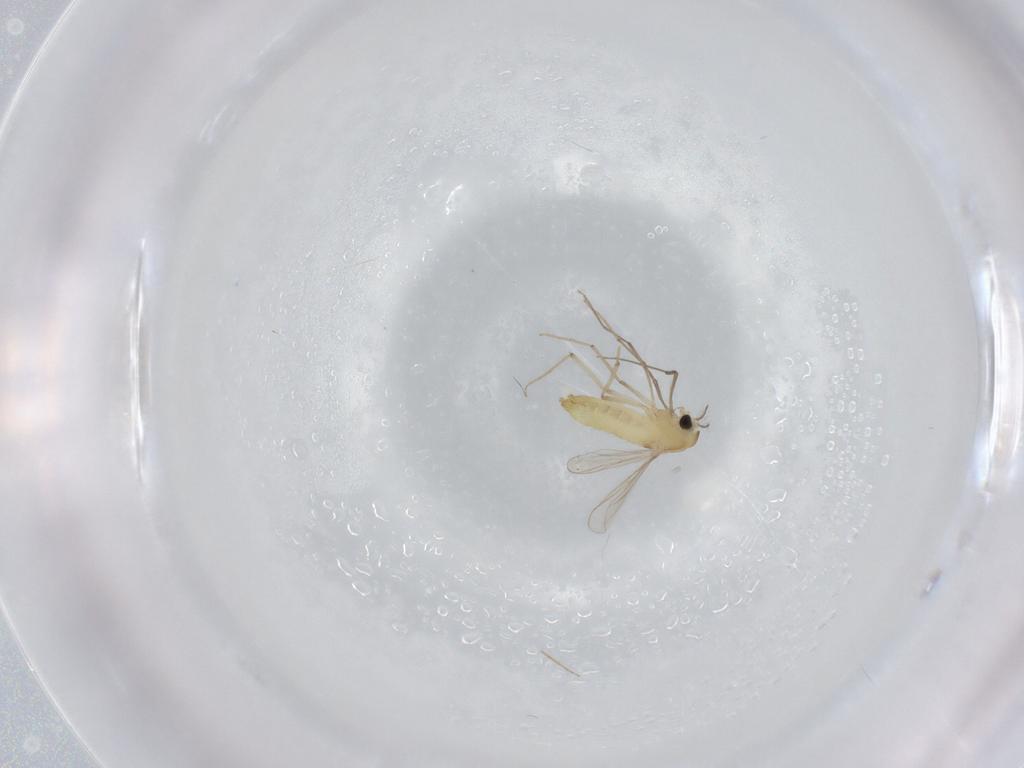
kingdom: Animalia
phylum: Arthropoda
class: Insecta
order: Diptera
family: Chironomidae
